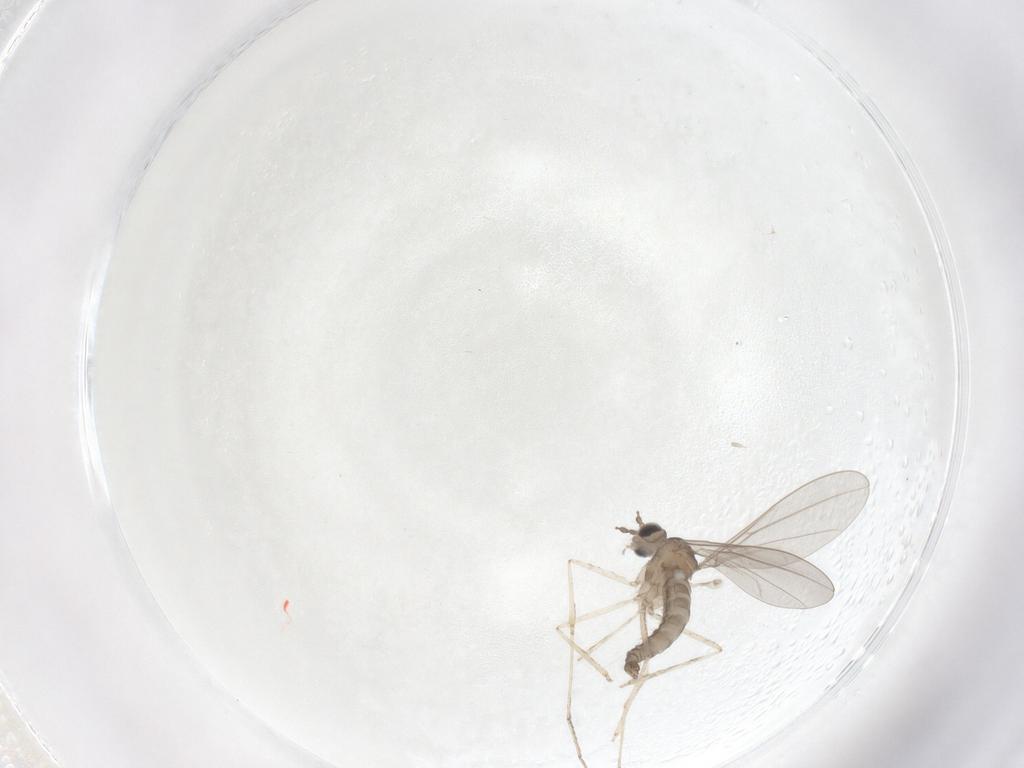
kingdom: Animalia
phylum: Arthropoda
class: Insecta
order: Diptera
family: Cecidomyiidae
